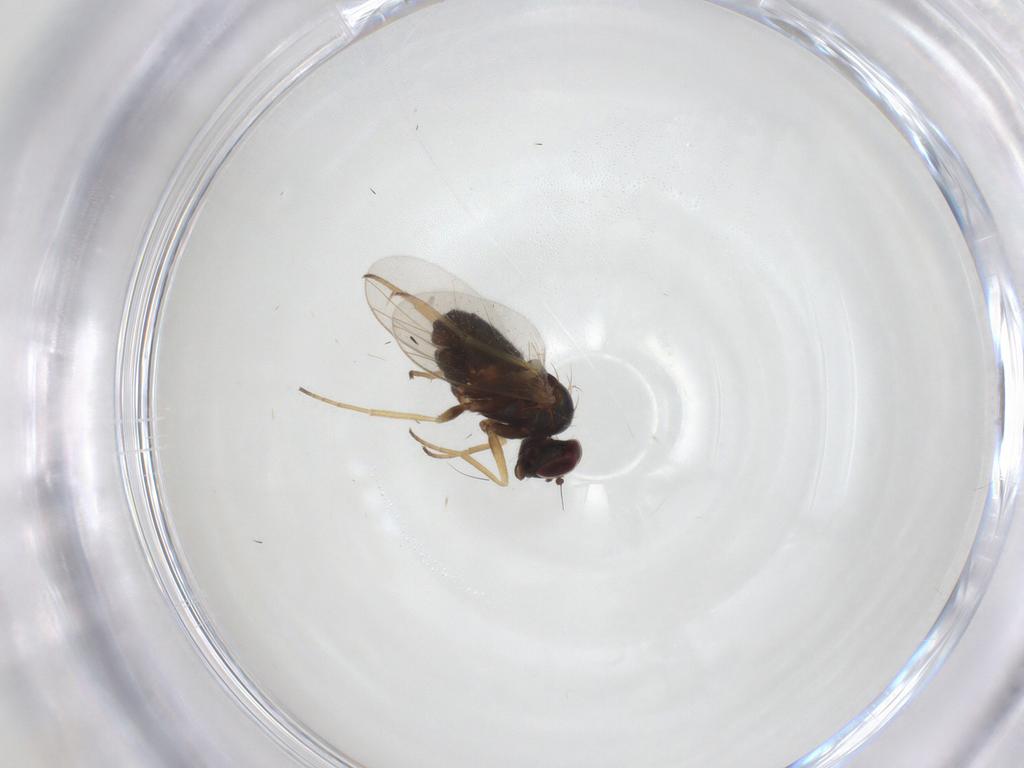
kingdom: Animalia
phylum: Arthropoda
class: Insecta
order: Diptera
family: Dolichopodidae
